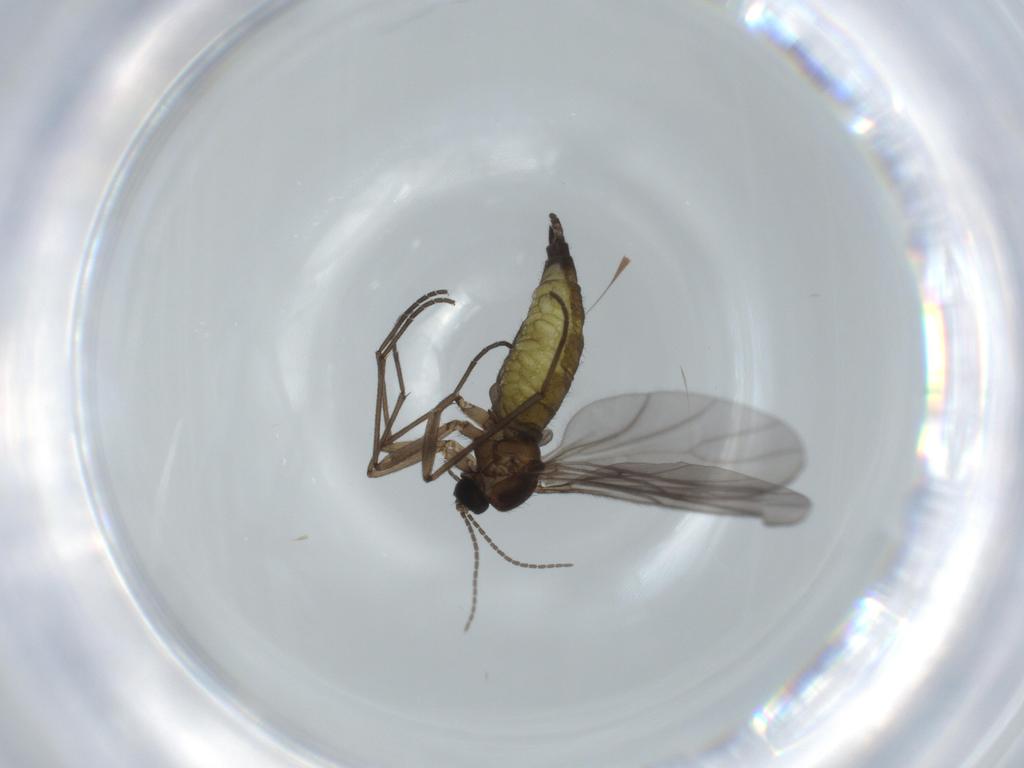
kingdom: Animalia
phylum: Arthropoda
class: Insecta
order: Diptera
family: Sciaridae
